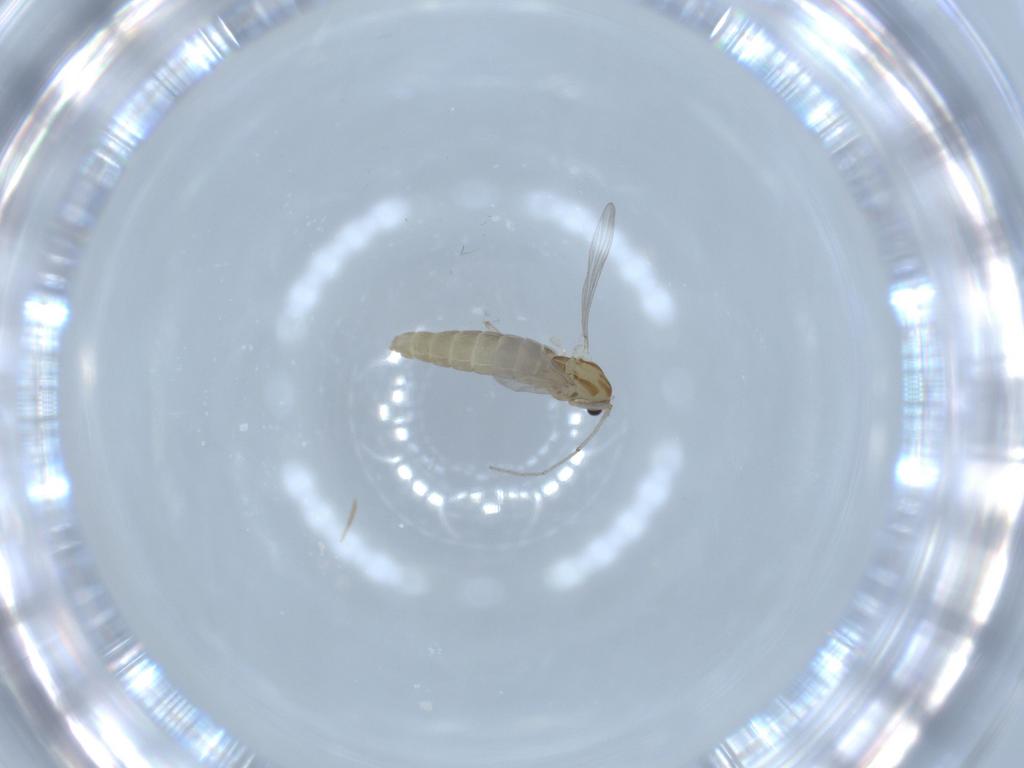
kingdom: Animalia
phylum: Arthropoda
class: Insecta
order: Diptera
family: Chironomidae
